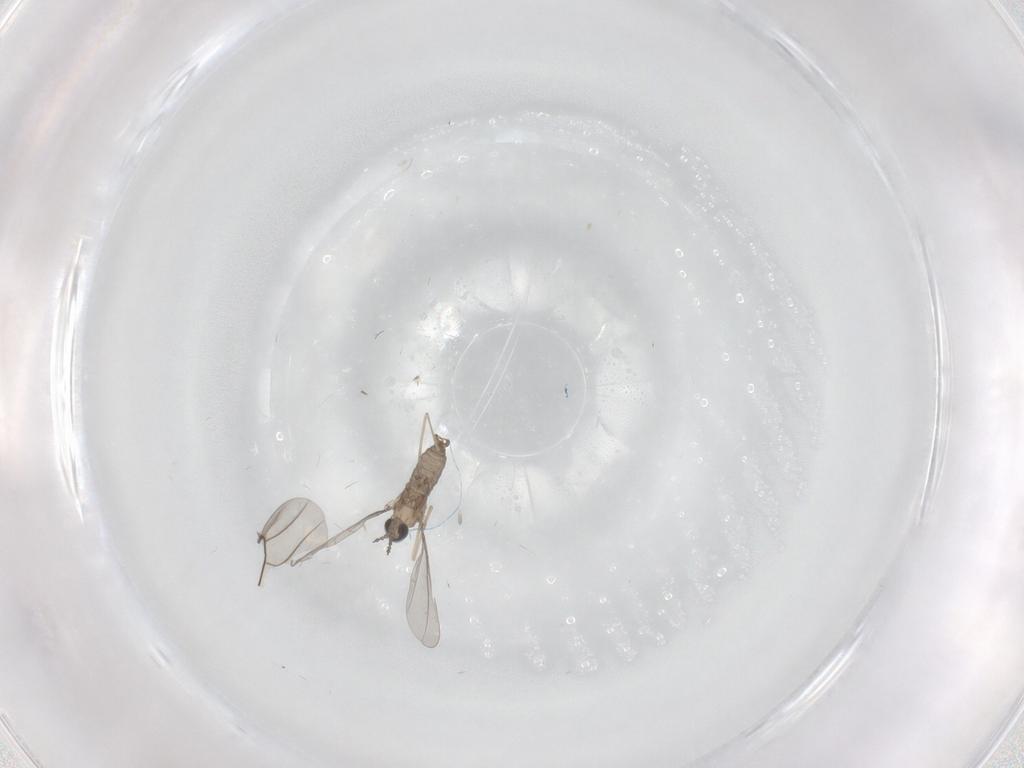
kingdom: Animalia
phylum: Arthropoda
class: Insecta
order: Diptera
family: Cecidomyiidae
